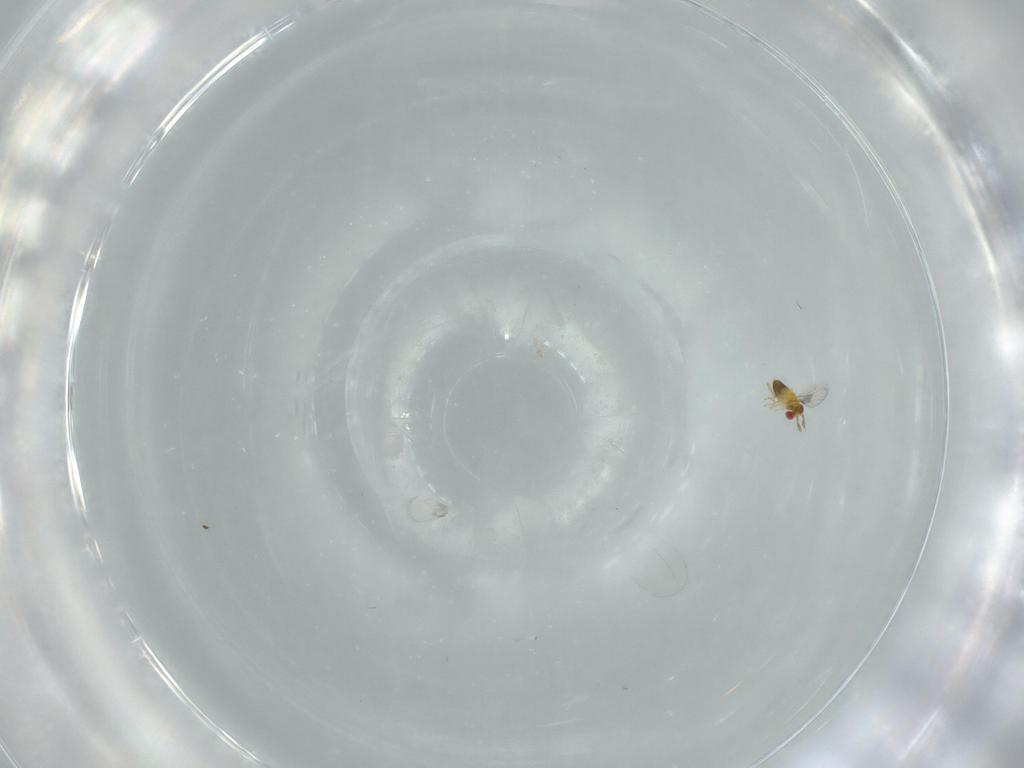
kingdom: Animalia
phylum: Arthropoda
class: Insecta
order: Hymenoptera
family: Trichogrammatidae
